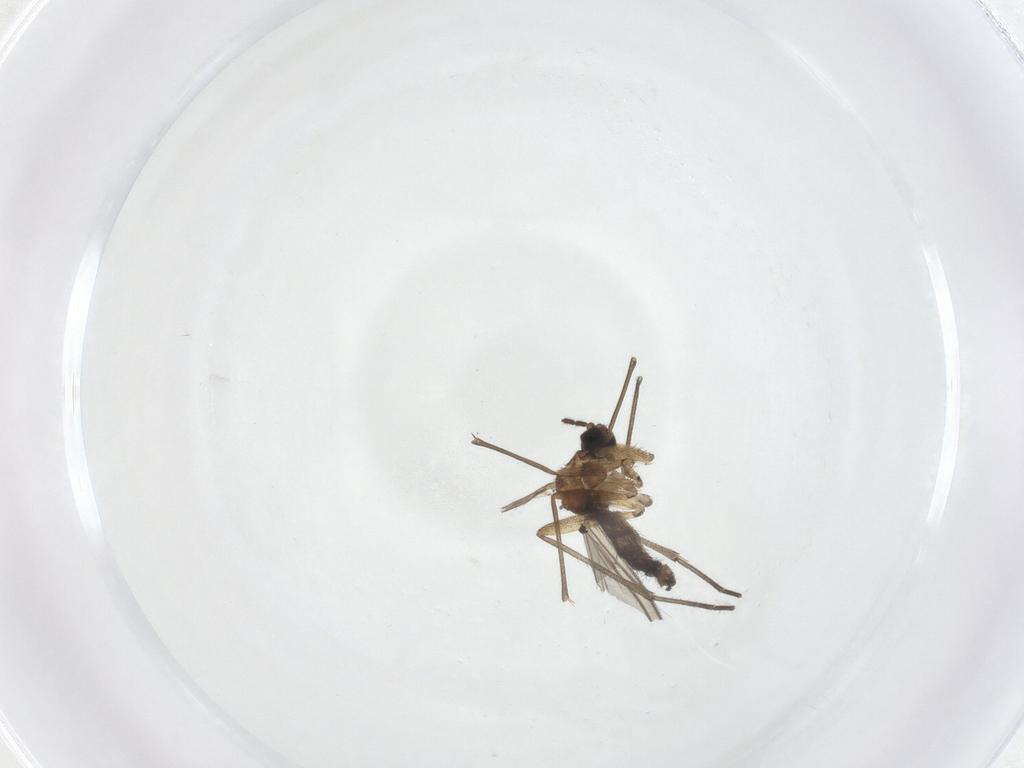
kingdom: Animalia
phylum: Arthropoda
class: Insecta
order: Diptera
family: Sciaridae
